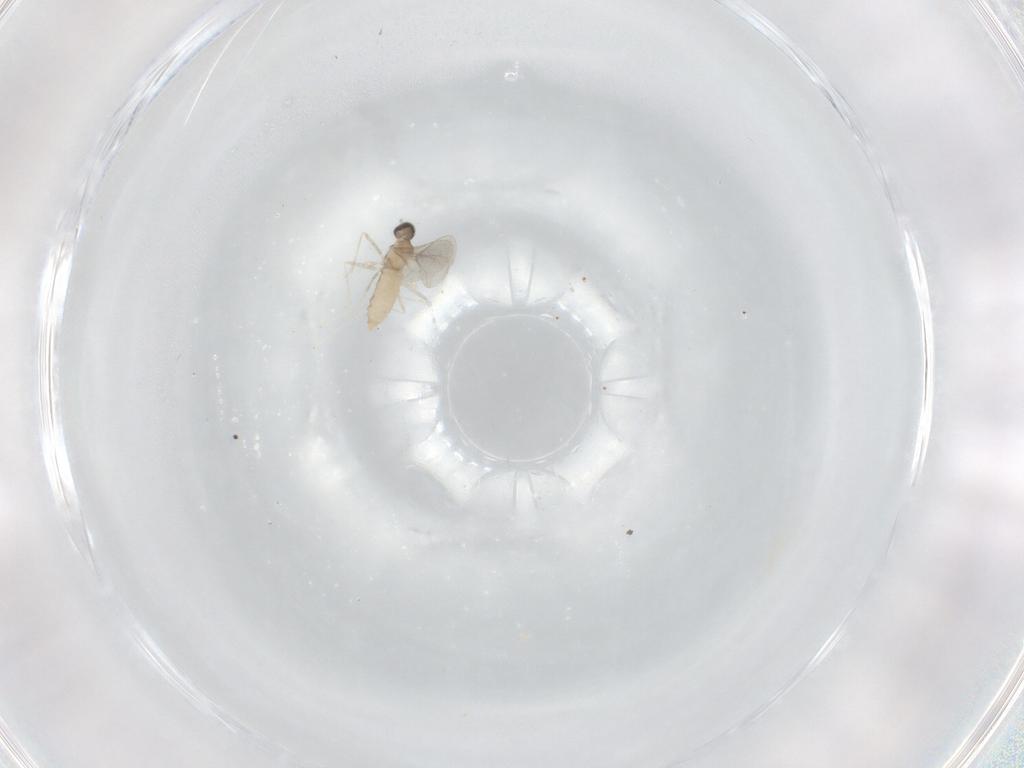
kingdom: Animalia
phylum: Arthropoda
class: Insecta
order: Diptera
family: Cecidomyiidae
